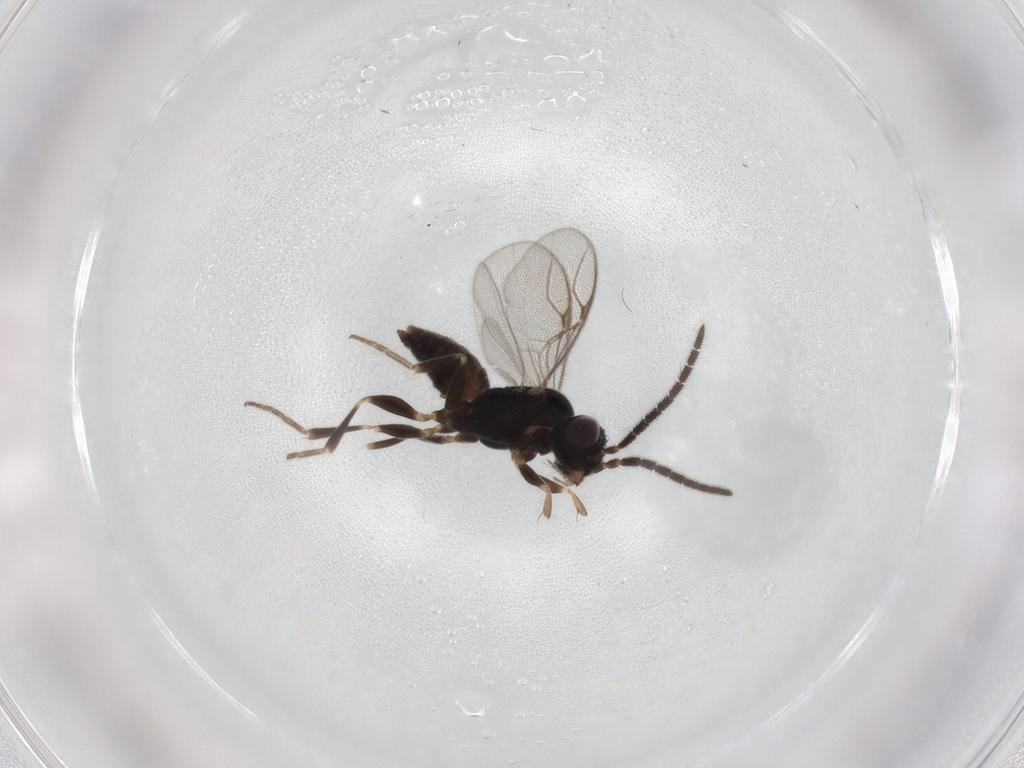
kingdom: Animalia
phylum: Arthropoda
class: Insecta
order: Hymenoptera
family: Dryinidae
